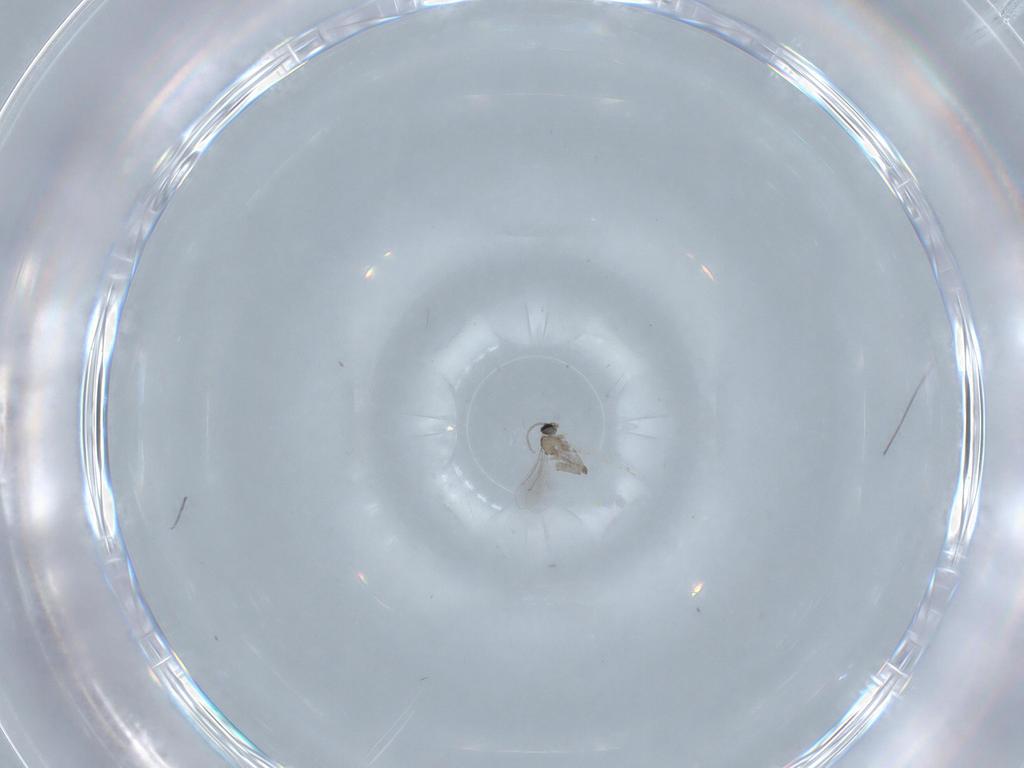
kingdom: Animalia
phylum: Arthropoda
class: Insecta
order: Diptera
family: Cecidomyiidae
